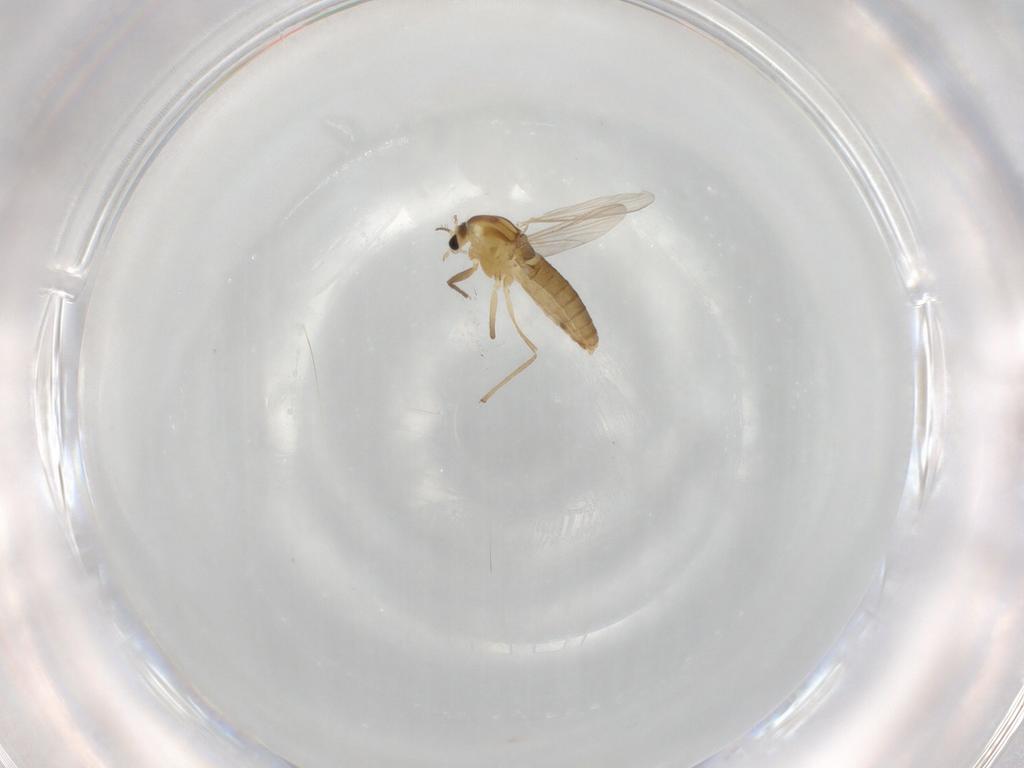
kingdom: Animalia
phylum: Arthropoda
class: Insecta
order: Diptera
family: Chironomidae
